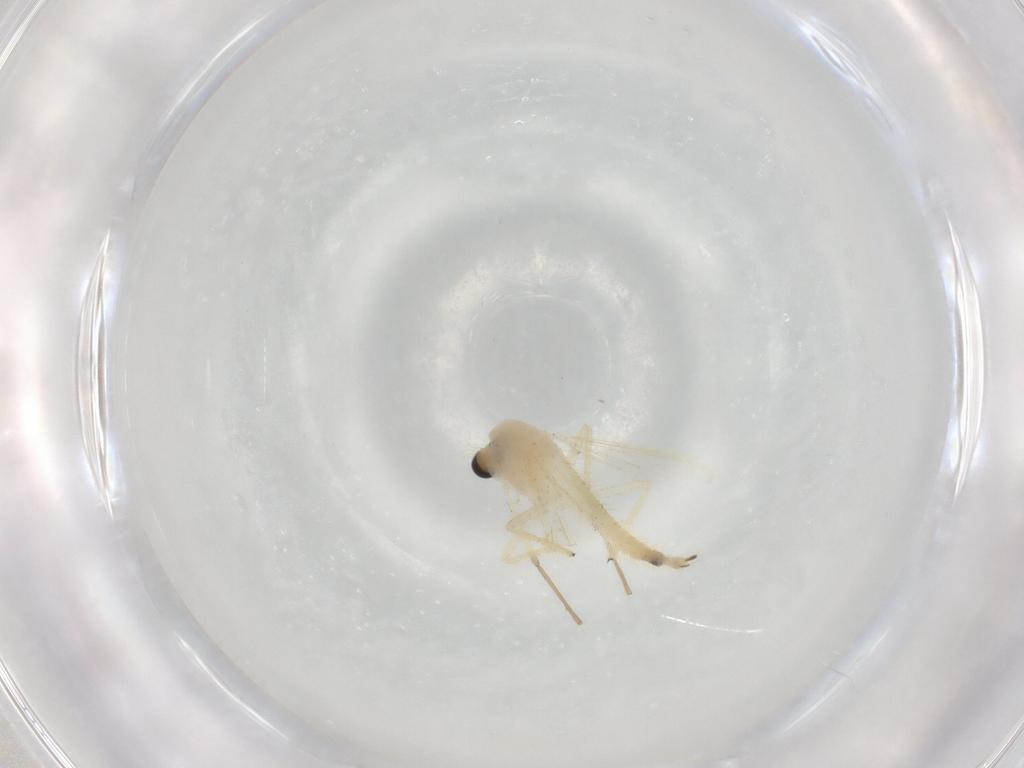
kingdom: Animalia
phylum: Arthropoda
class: Insecta
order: Diptera
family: Chironomidae
